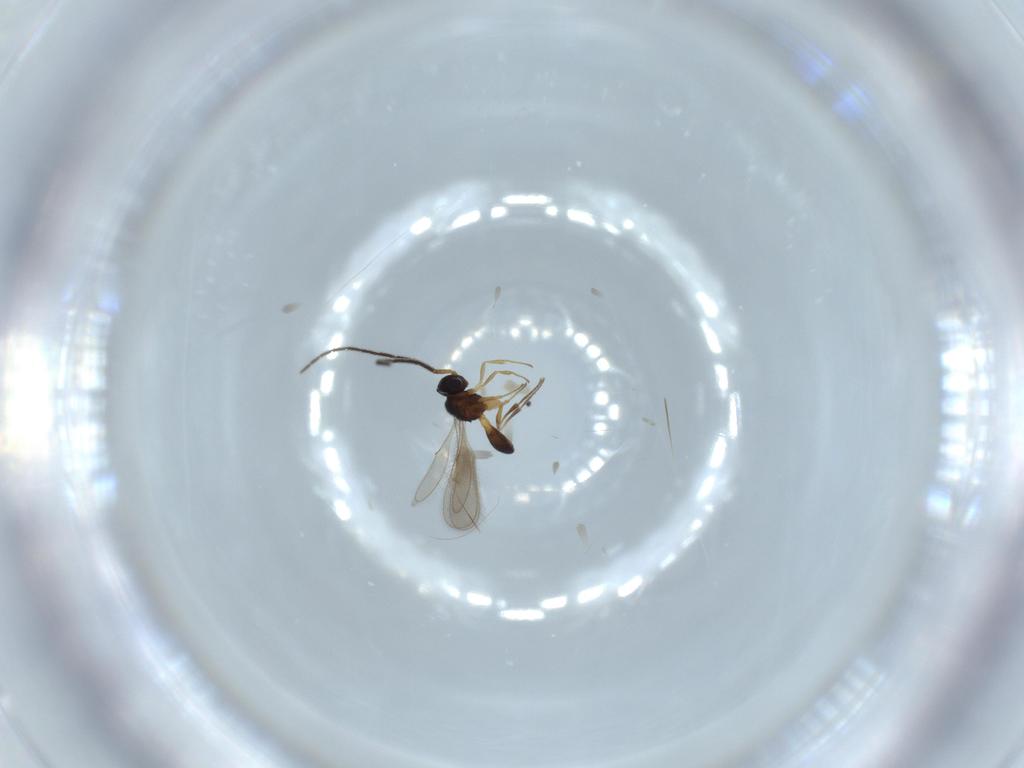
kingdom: Animalia
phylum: Arthropoda
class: Insecta
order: Hymenoptera
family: Scelionidae
